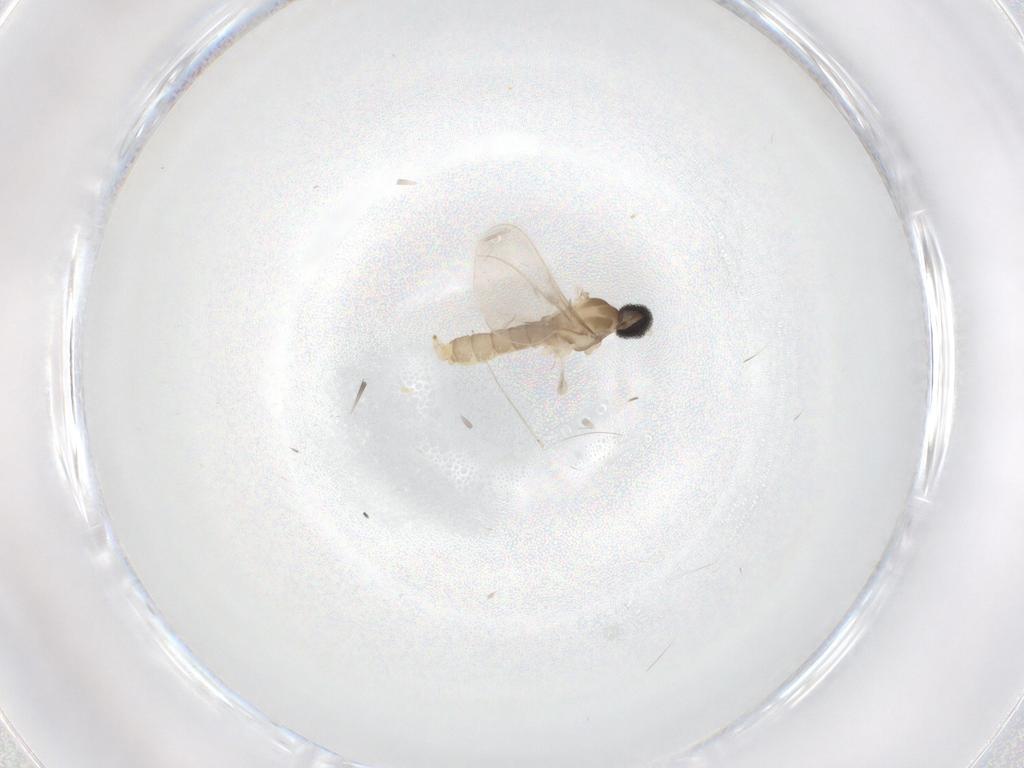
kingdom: Animalia
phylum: Arthropoda
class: Insecta
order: Diptera
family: Cecidomyiidae
